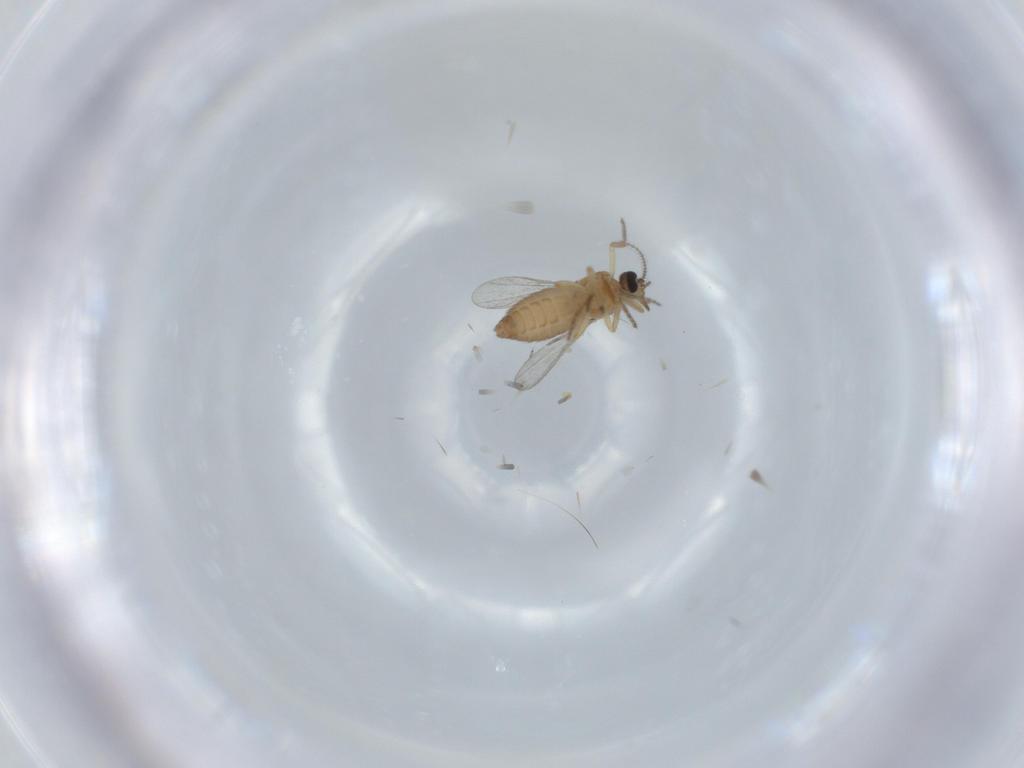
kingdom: Animalia
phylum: Arthropoda
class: Insecta
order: Diptera
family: Ceratopogonidae
